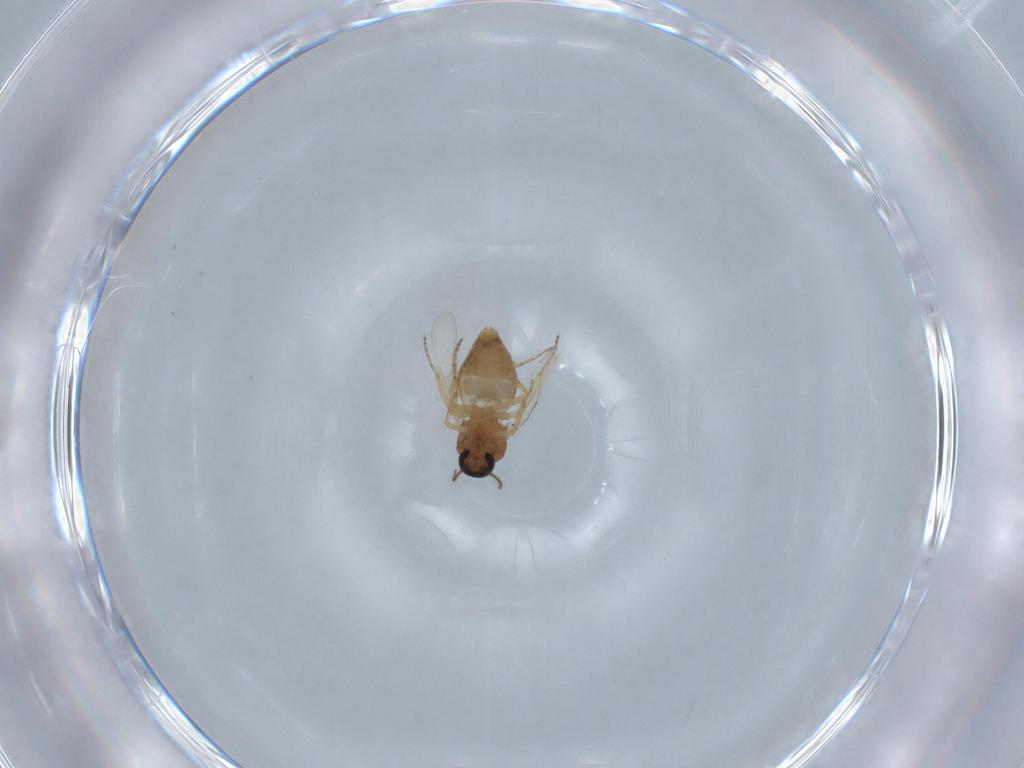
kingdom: Animalia
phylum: Arthropoda
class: Insecta
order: Diptera
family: Ceratopogonidae
